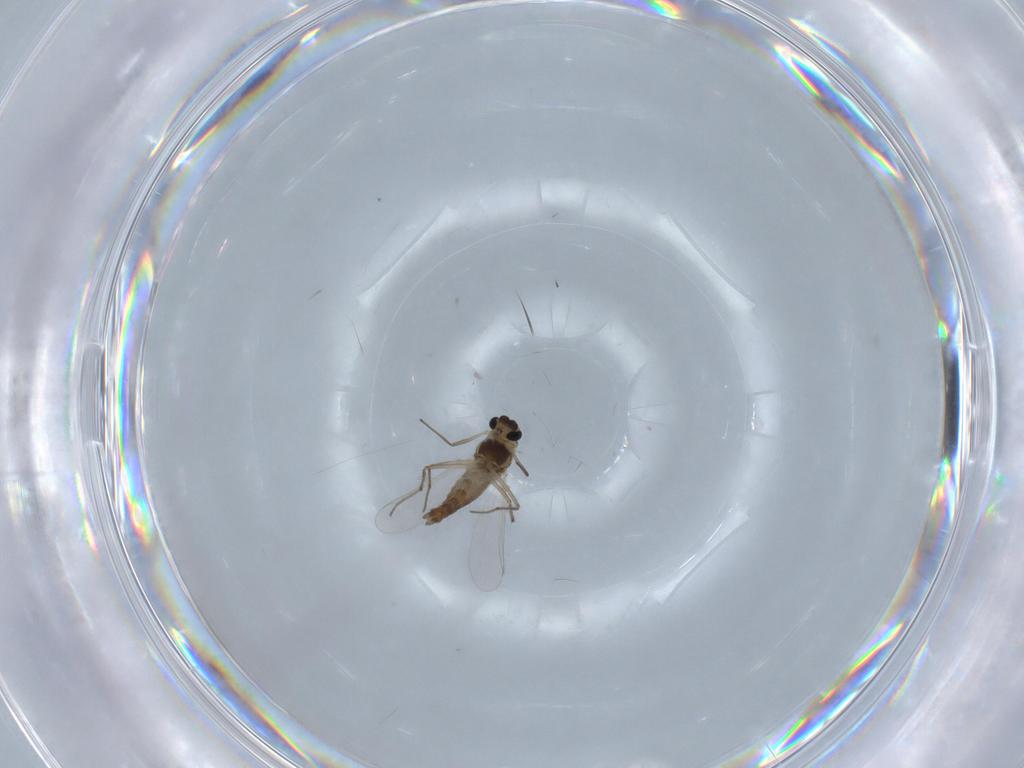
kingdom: Animalia
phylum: Arthropoda
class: Insecta
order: Diptera
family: Chironomidae
